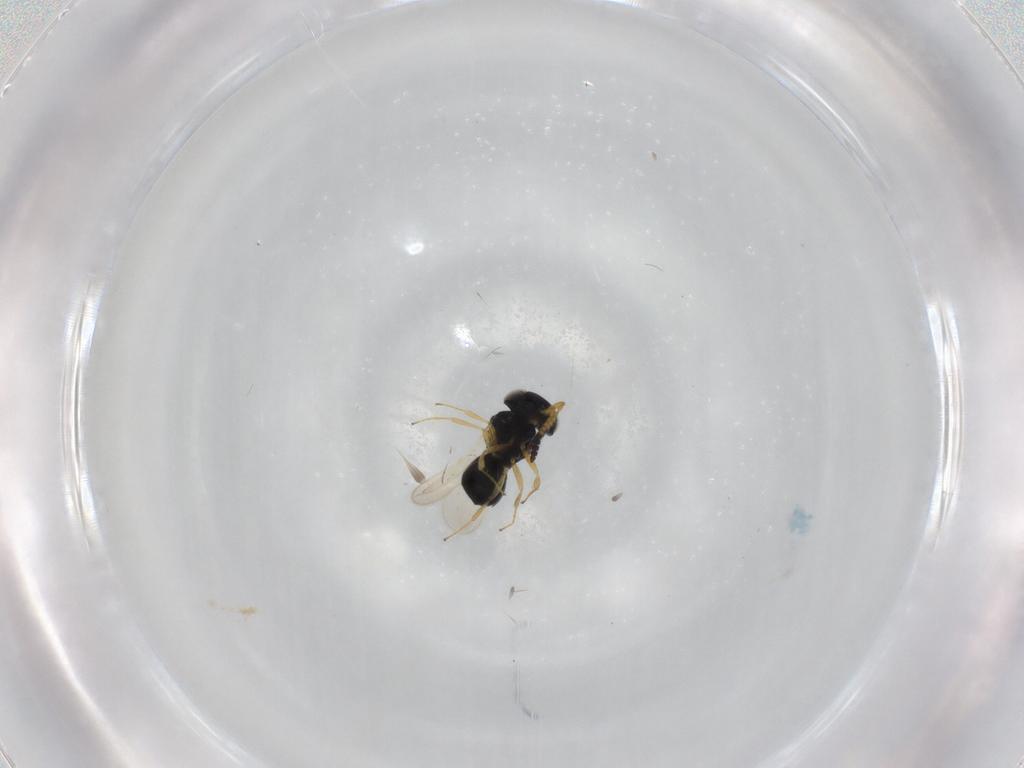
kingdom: Animalia
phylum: Arthropoda
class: Insecta
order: Hymenoptera
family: Scelionidae
